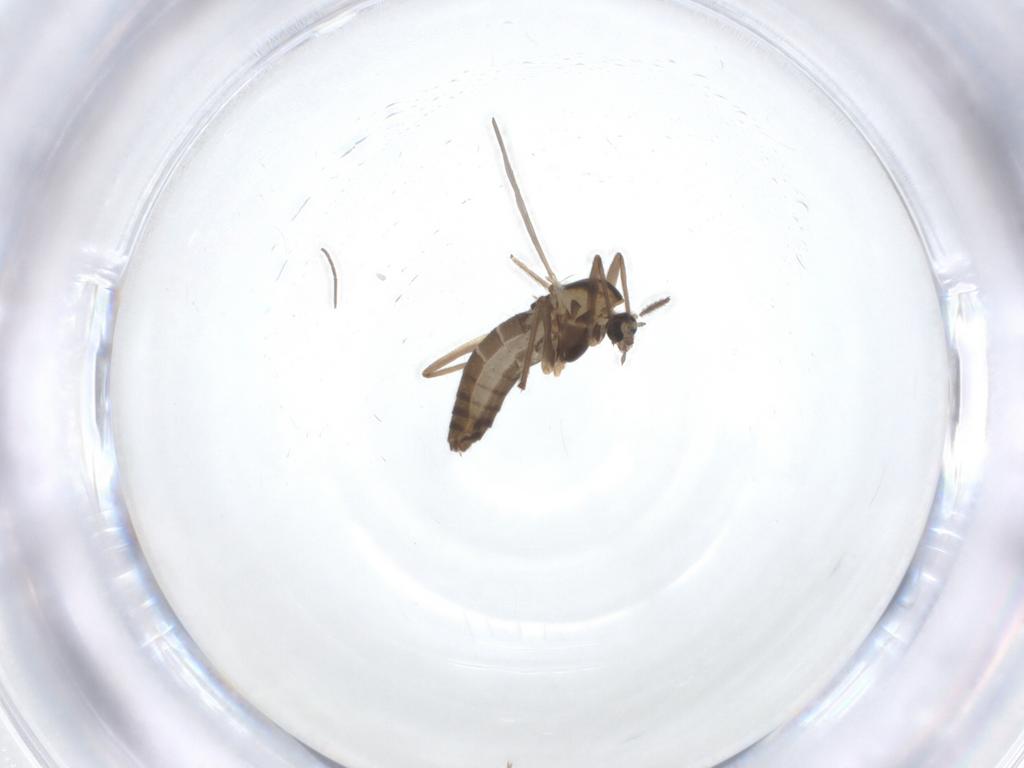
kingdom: Animalia
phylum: Arthropoda
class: Insecta
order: Diptera
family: Chironomidae
